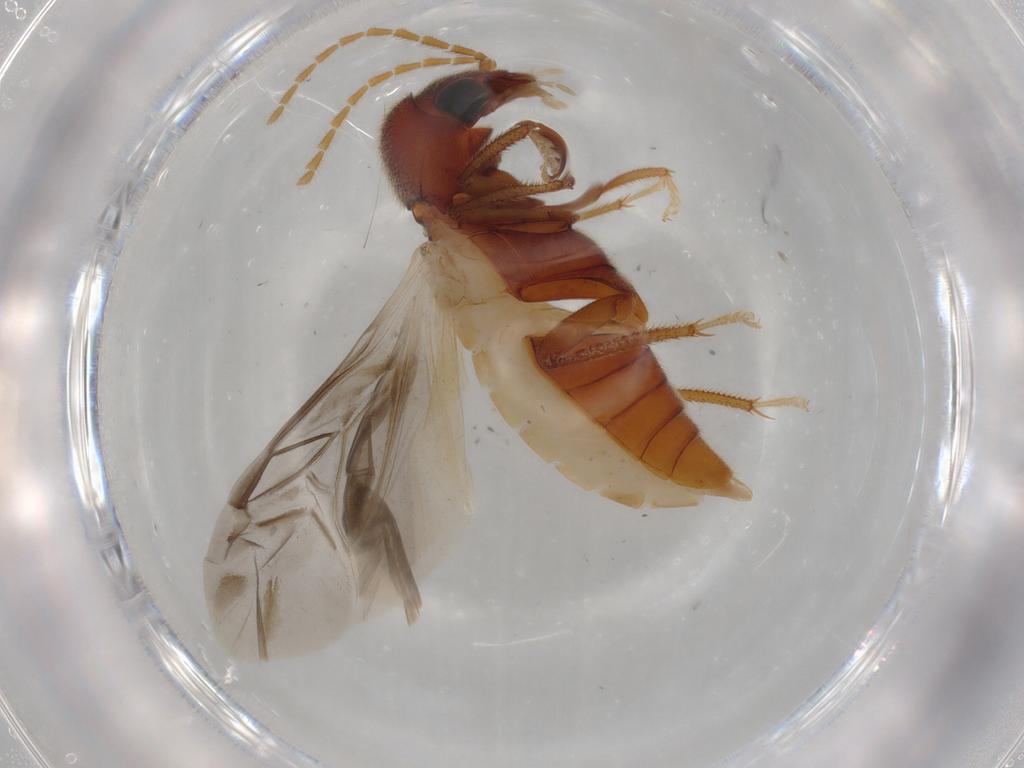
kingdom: Animalia
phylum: Arthropoda
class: Insecta
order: Coleoptera
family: Ptilodactylidae
